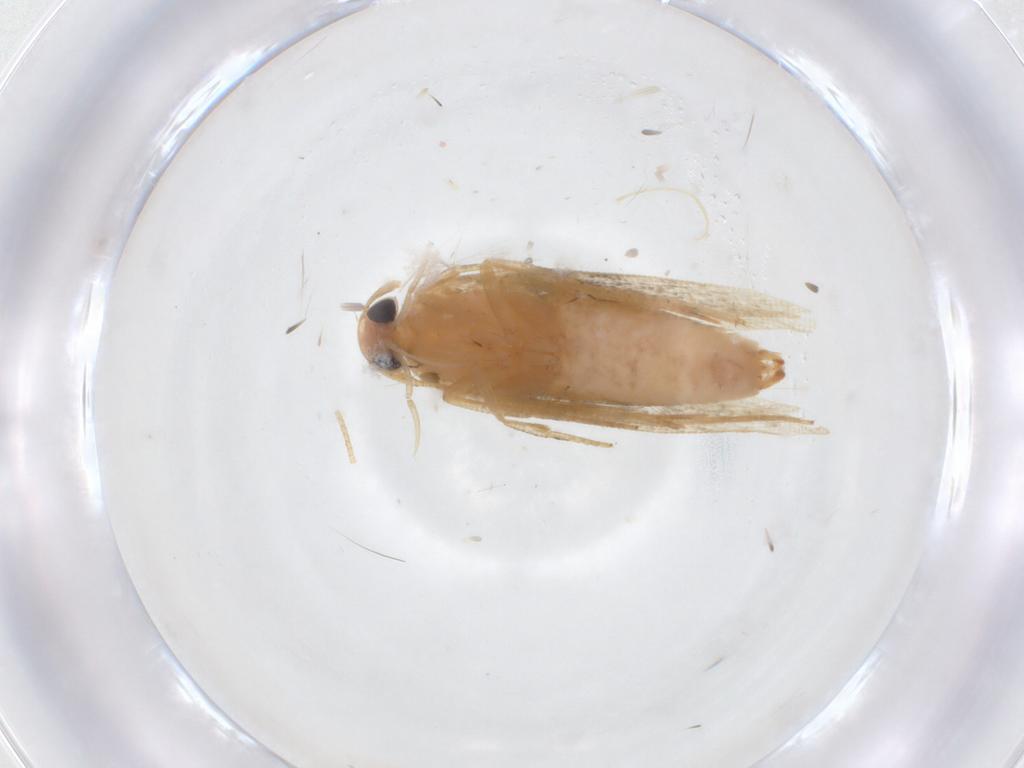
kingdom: Animalia
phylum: Arthropoda
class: Insecta
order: Lepidoptera
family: Cosmopterigidae
